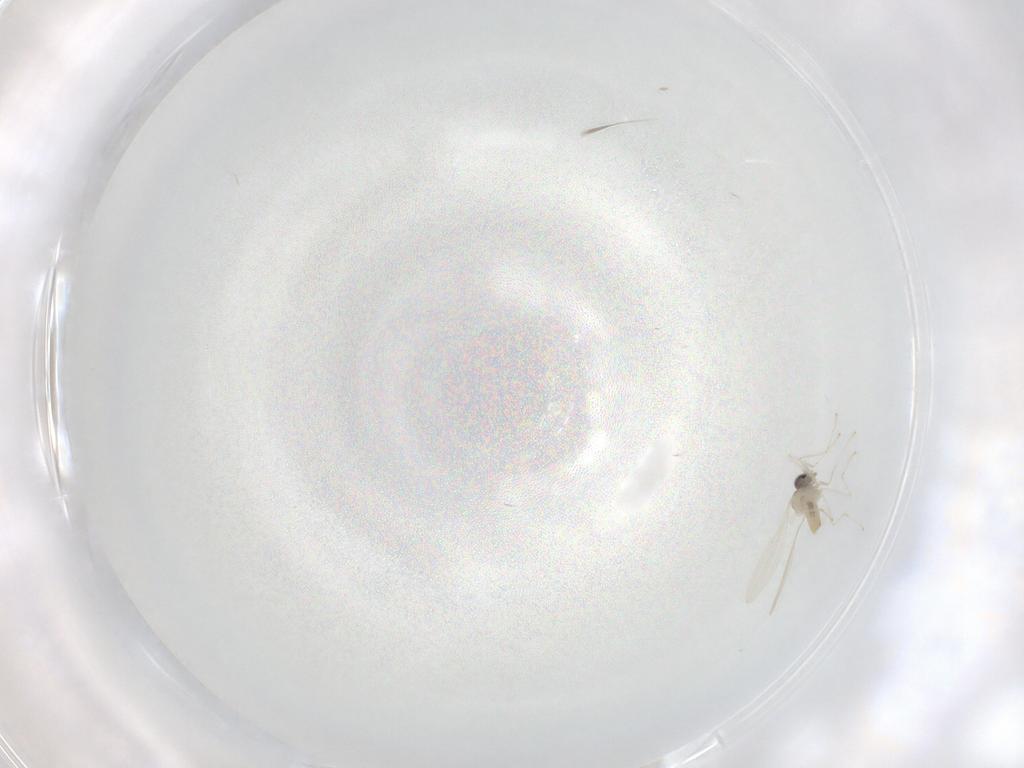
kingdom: Animalia
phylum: Arthropoda
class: Insecta
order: Diptera
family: Cecidomyiidae
